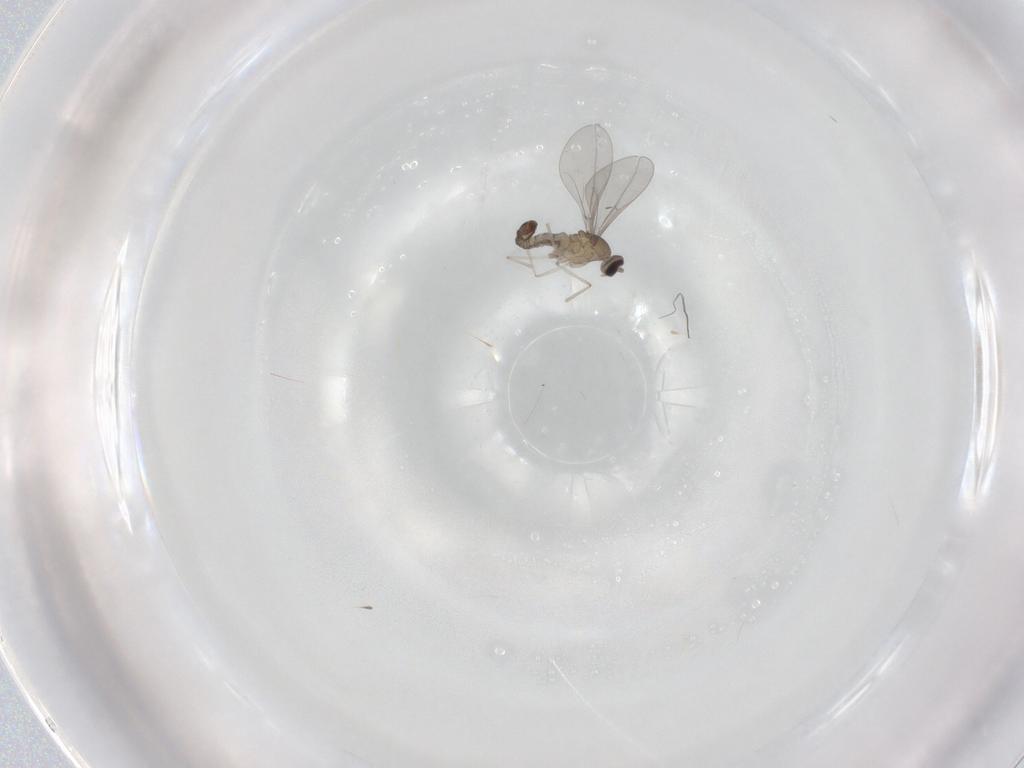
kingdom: Animalia
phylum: Arthropoda
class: Insecta
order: Diptera
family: Cecidomyiidae
